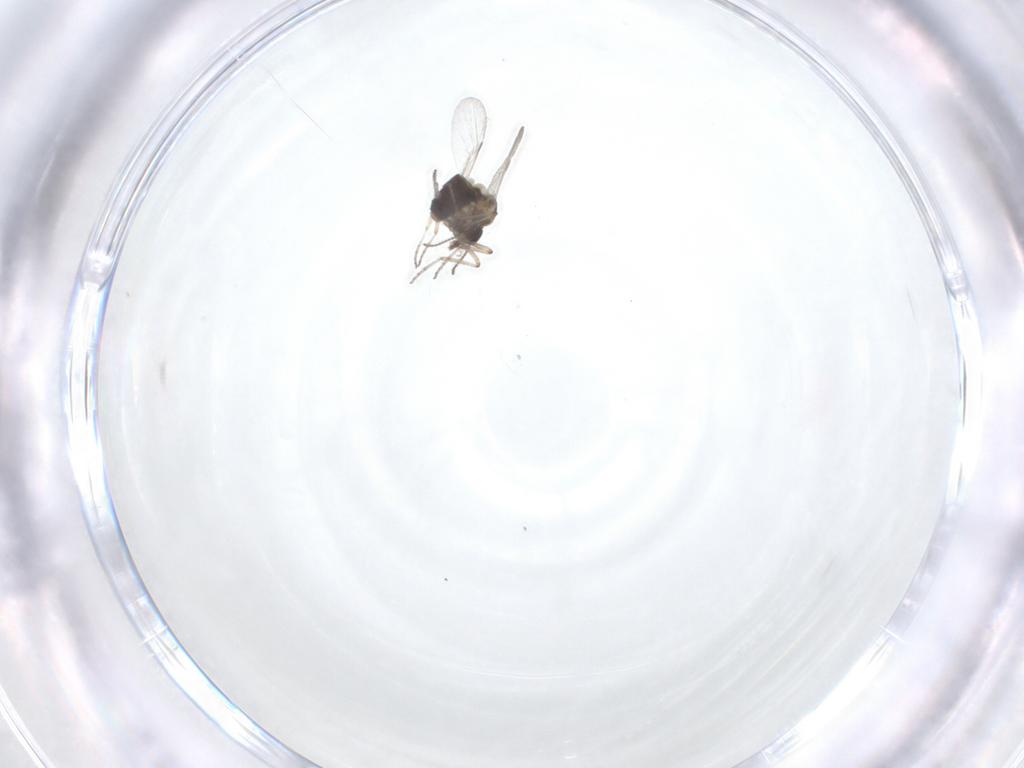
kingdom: Animalia
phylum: Arthropoda
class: Insecta
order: Diptera
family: Ceratopogonidae
